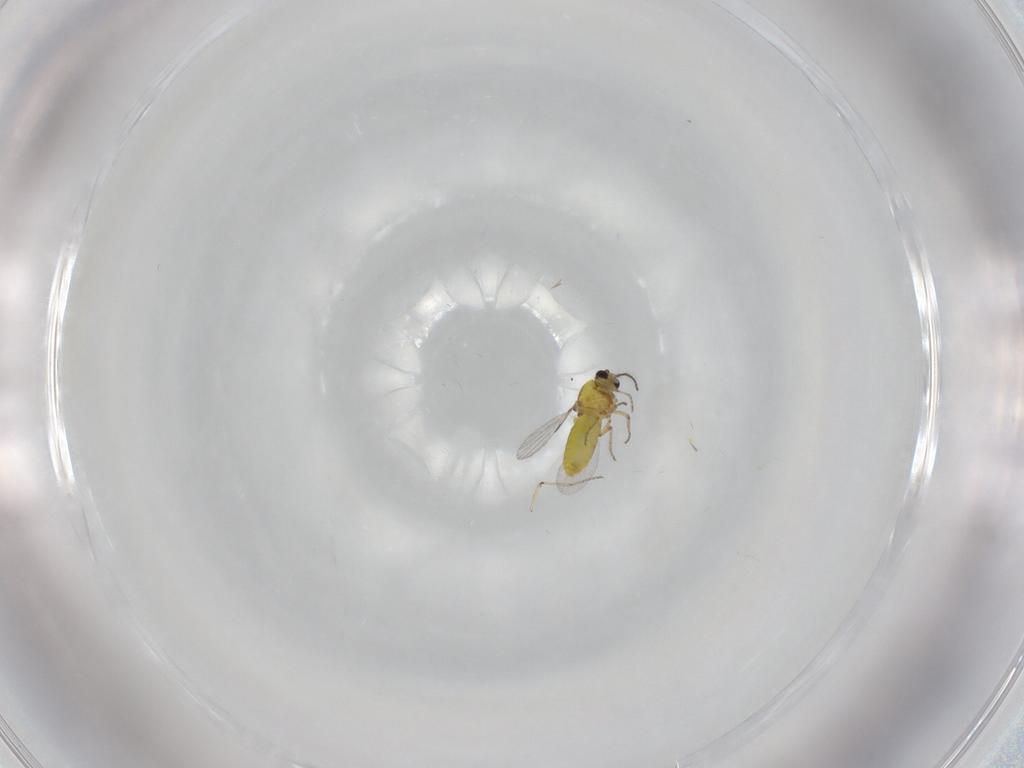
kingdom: Animalia
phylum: Arthropoda
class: Insecta
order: Diptera
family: Ceratopogonidae
